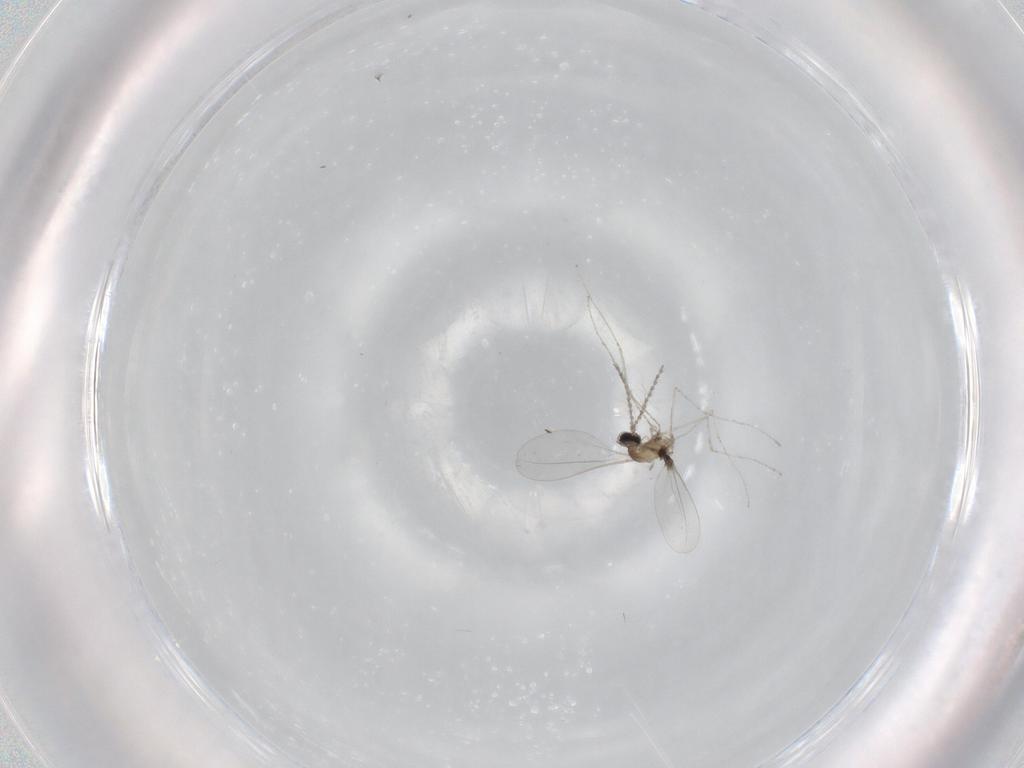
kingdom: Animalia
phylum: Arthropoda
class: Insecta
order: Diptera
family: Cecidomyiidae
